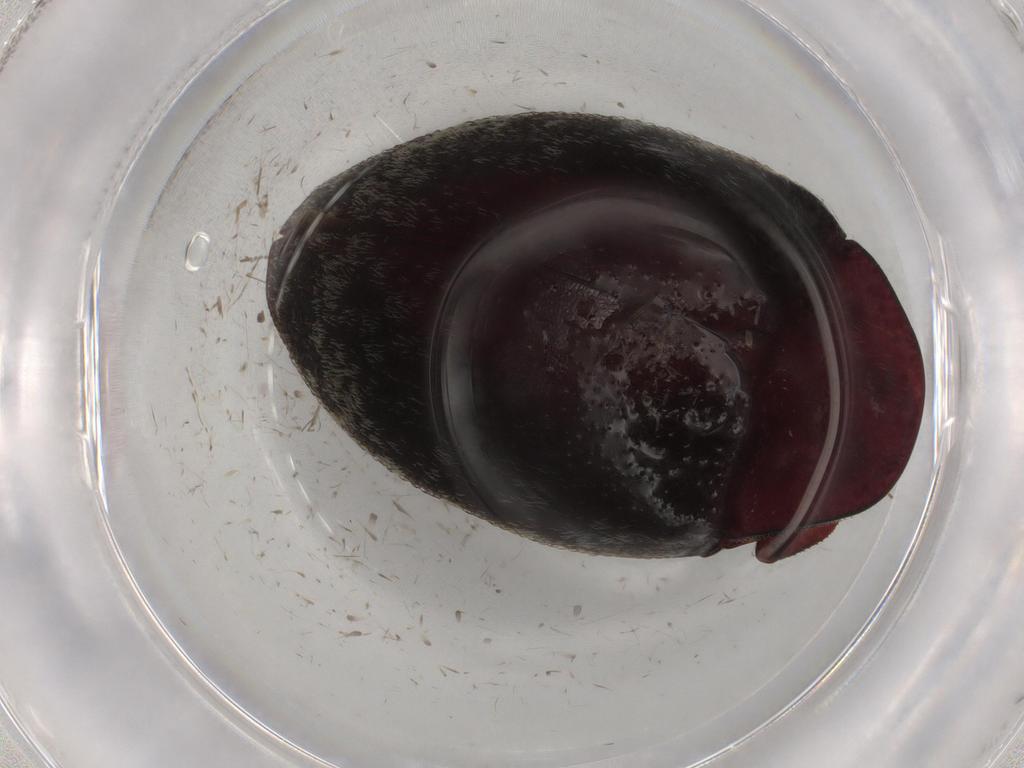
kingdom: Animalia
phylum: Arthropoda
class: Insecta
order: Coleoptera
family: Chelonariidae
